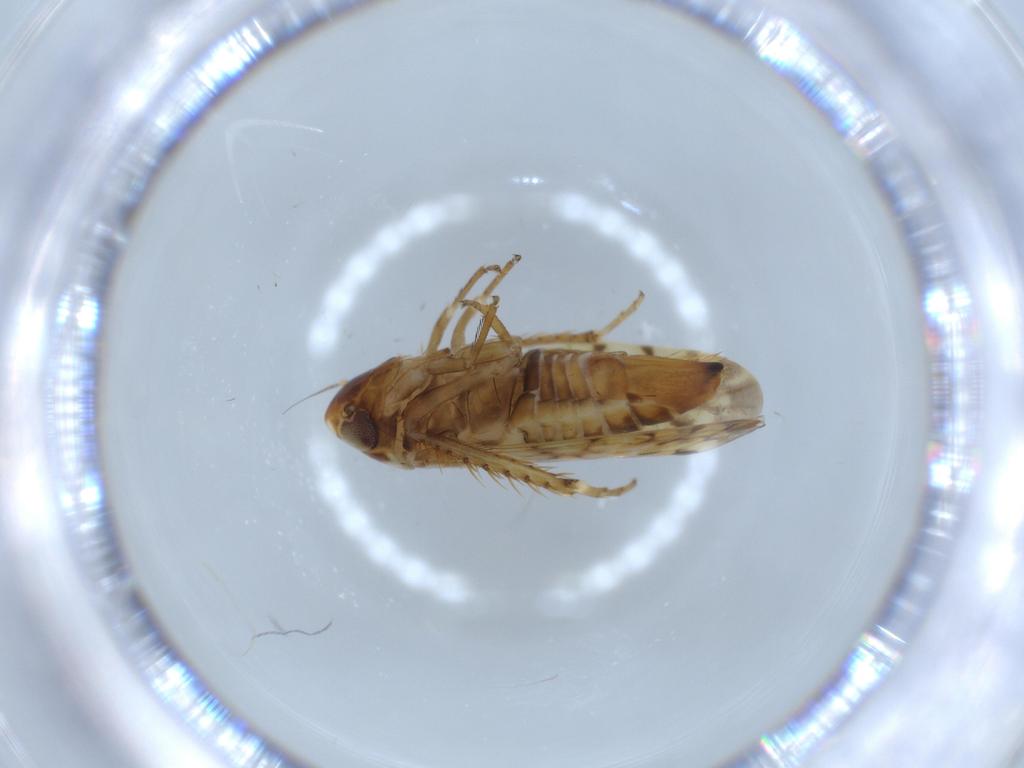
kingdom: Animalia
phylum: Arthropoda
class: Insecta
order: Hemiptera
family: Cicadellidae
